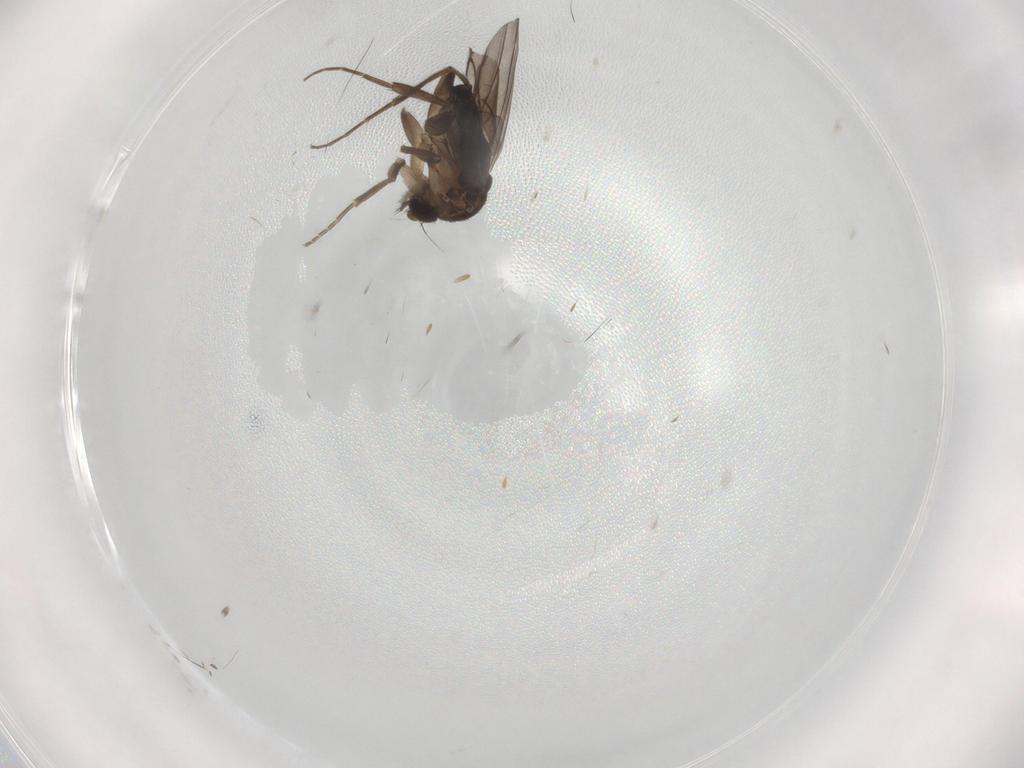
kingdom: Animalia
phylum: Arthropoda
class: Insecta
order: Diptera
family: Phoridae
